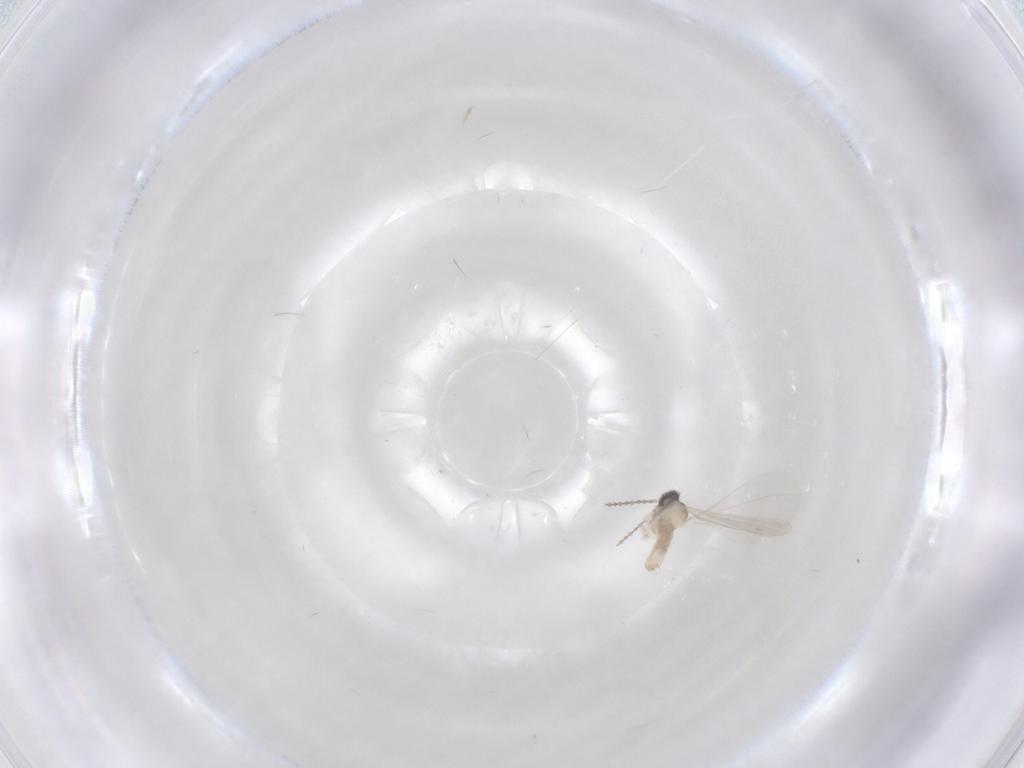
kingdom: Animalia
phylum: Arthropoda
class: Insecta
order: Diptera
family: Cecidomyiidae
